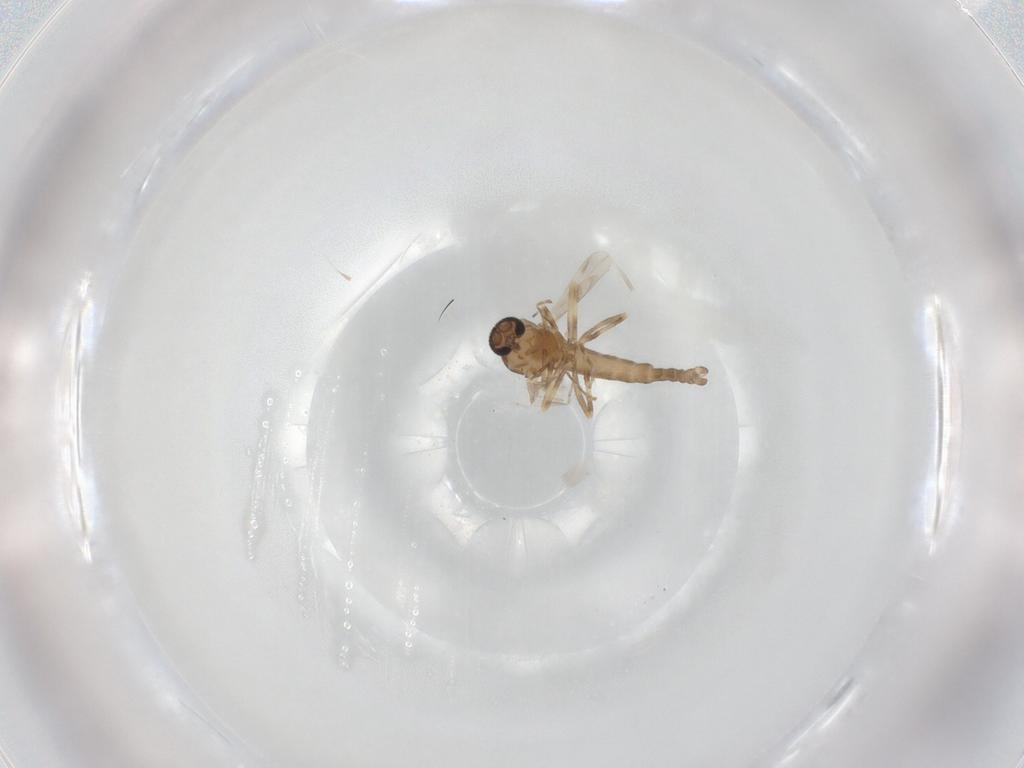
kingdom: Animalia
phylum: Arthropoda
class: Insecta
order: Diptera
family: Ceratopogonidae
